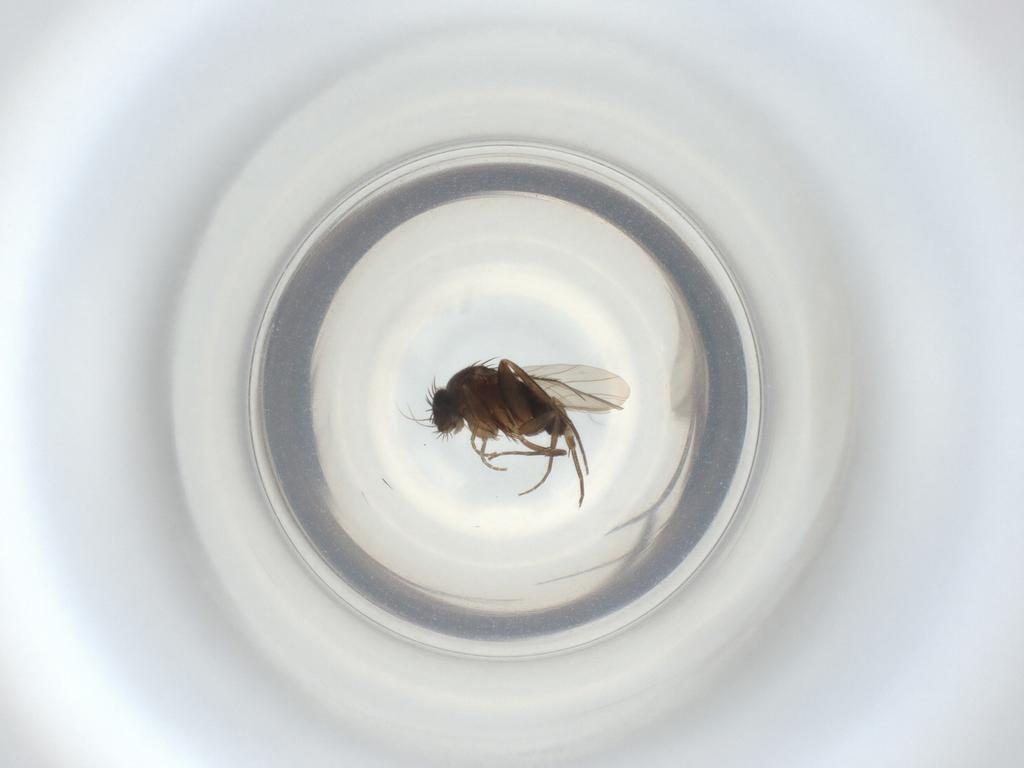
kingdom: Animalia
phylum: Arthropoda
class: Insecta
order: Diptera
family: Phoridae
